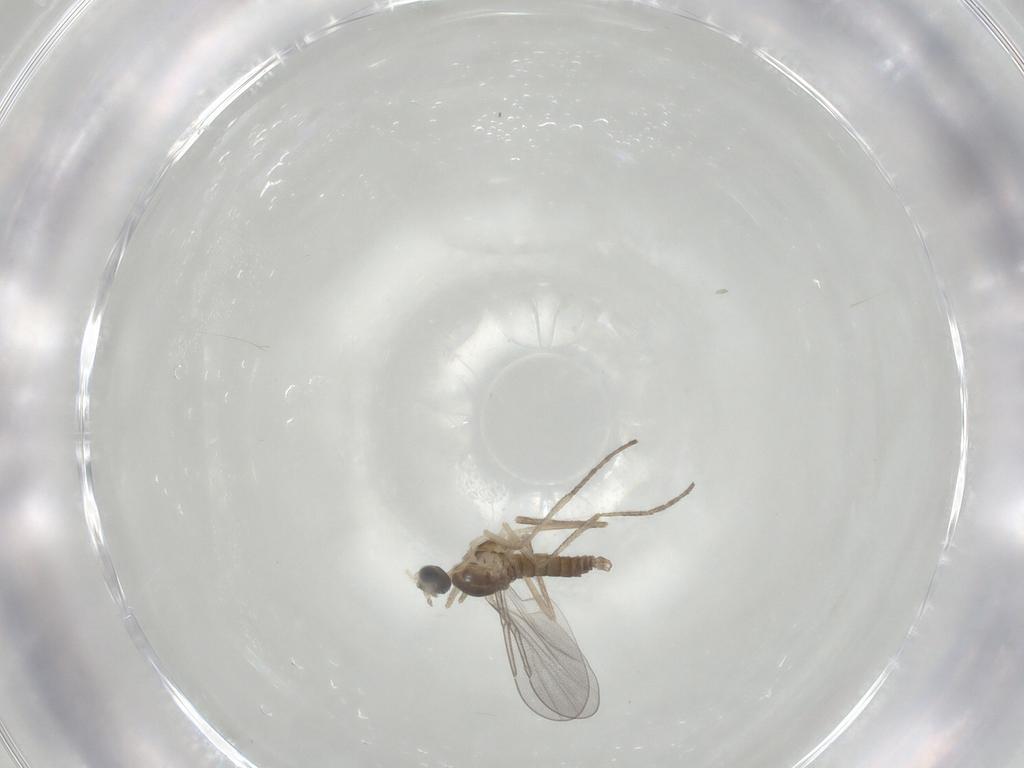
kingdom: Animalia
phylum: Arthropoda
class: Insecta
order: Diptera
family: Cecidomyiidae
